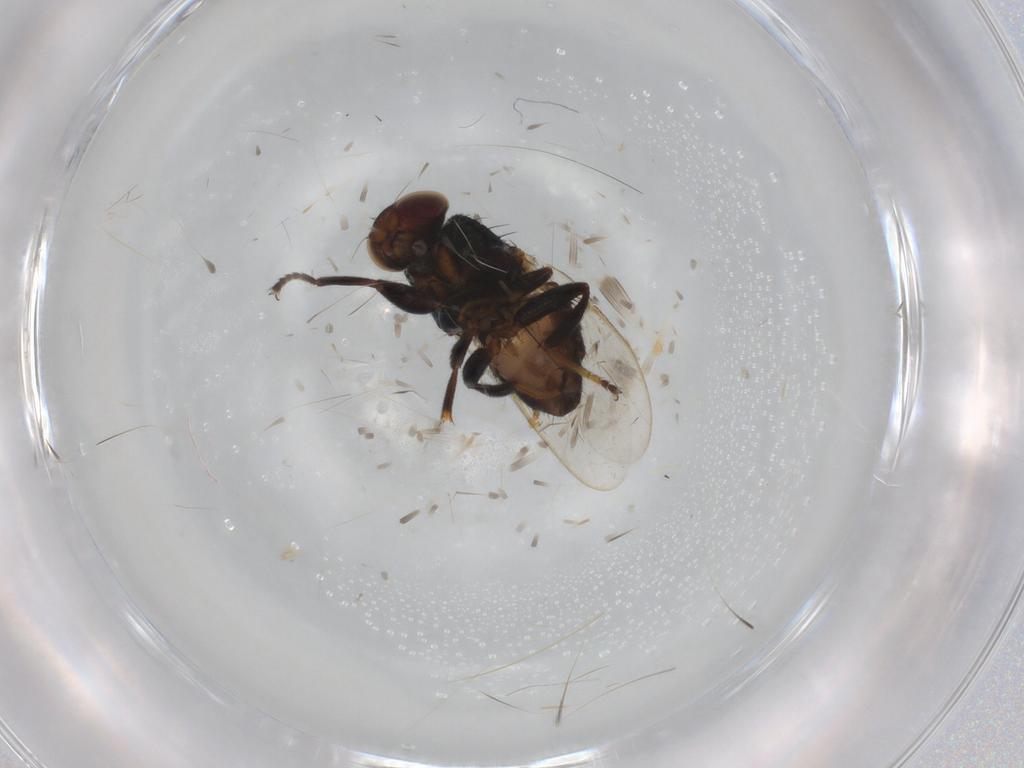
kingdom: Animalia
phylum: Arthropoda
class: Insecta
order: Diptera
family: Chloropidae
